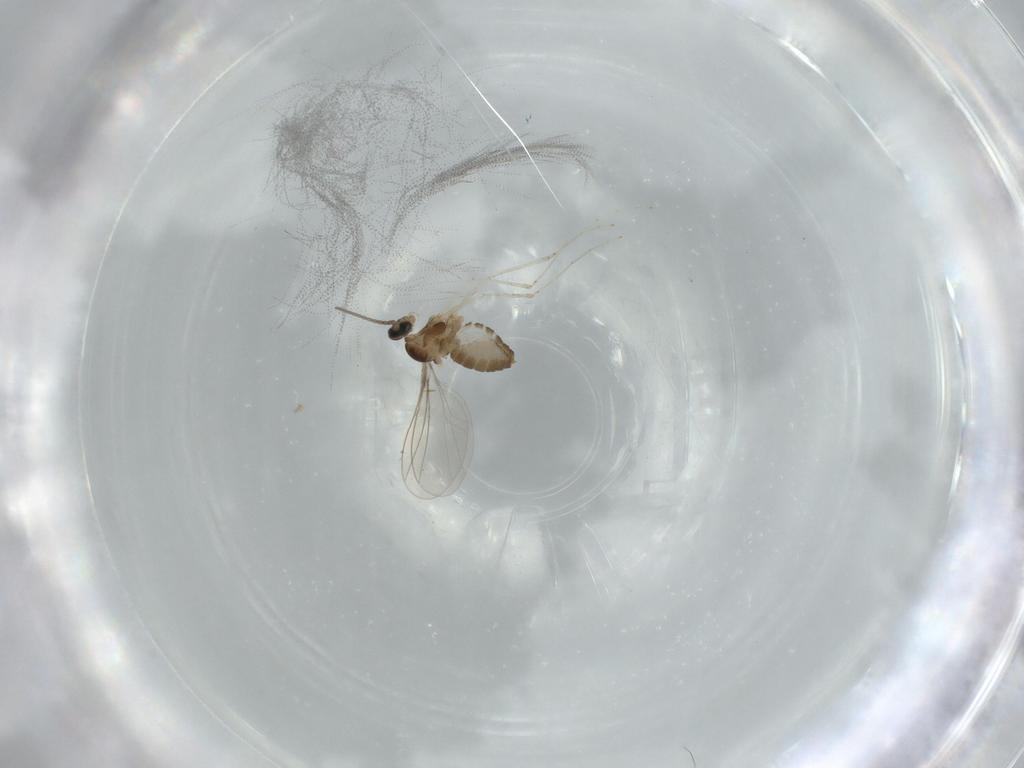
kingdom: Animalia
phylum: Arthropoda
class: Insecta
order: Diptera
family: Cecidomyiidae
